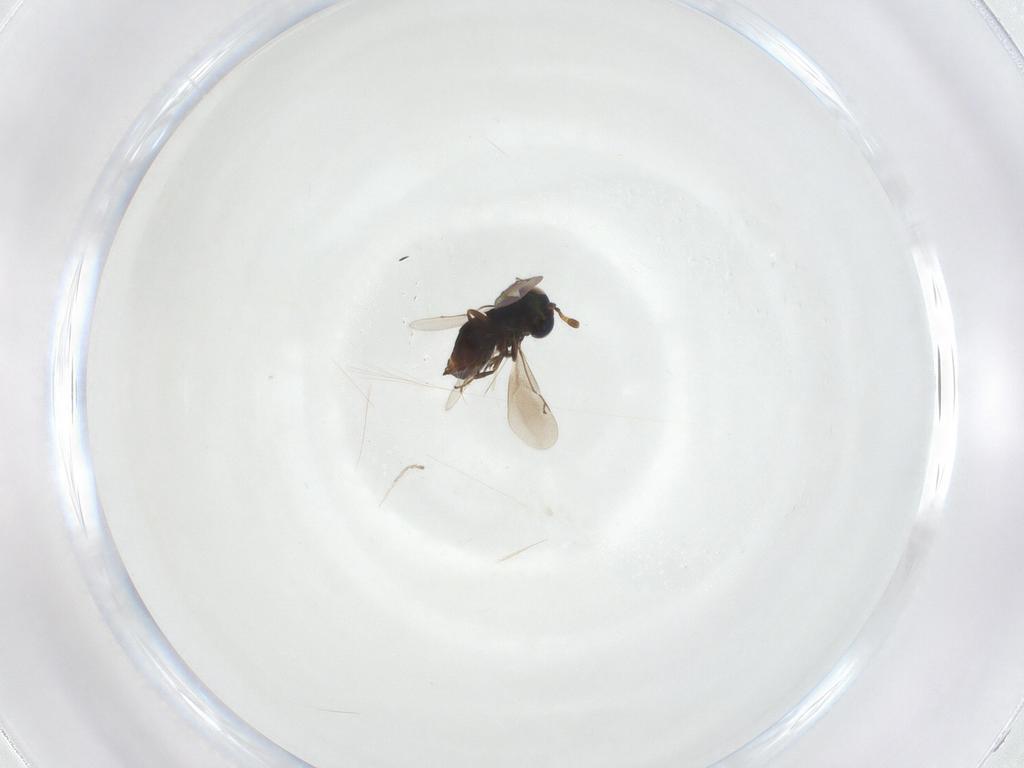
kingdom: Animalia
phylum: Arthropoda
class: Insecta
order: Hymenoptera
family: Eunotidae
